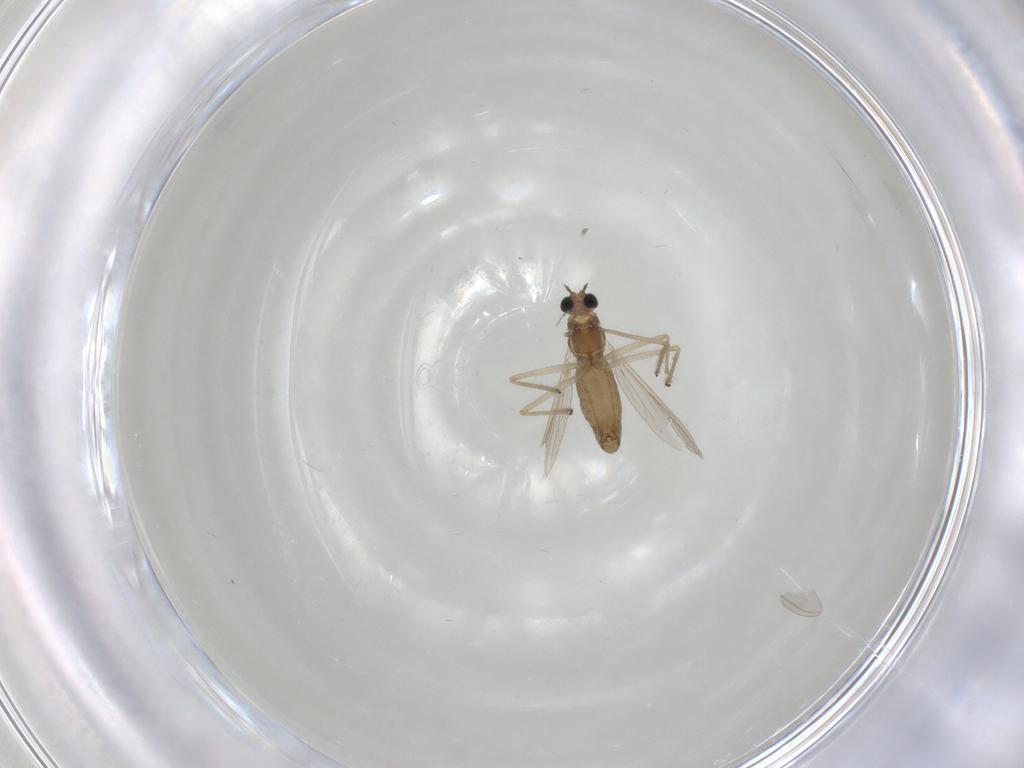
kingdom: Animalia
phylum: Arthropoda
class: Insecta
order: Diptera
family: Chironomidae
